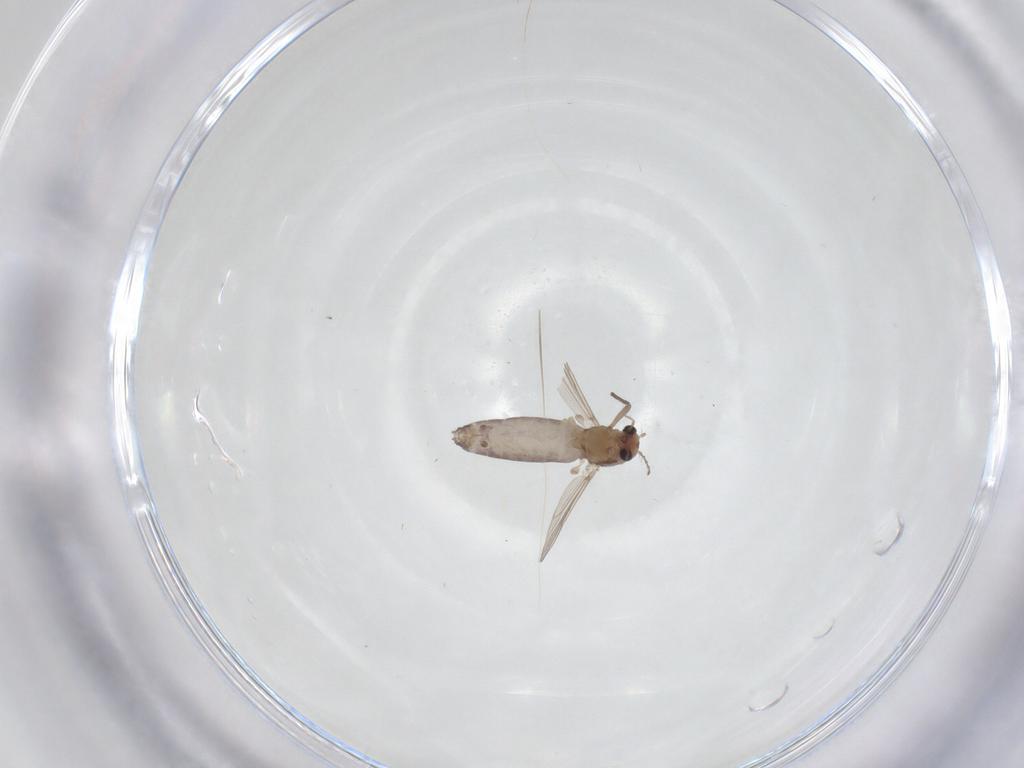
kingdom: Animalia
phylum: Arthropoda
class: Insecta
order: Diptera
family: Chironomidae
